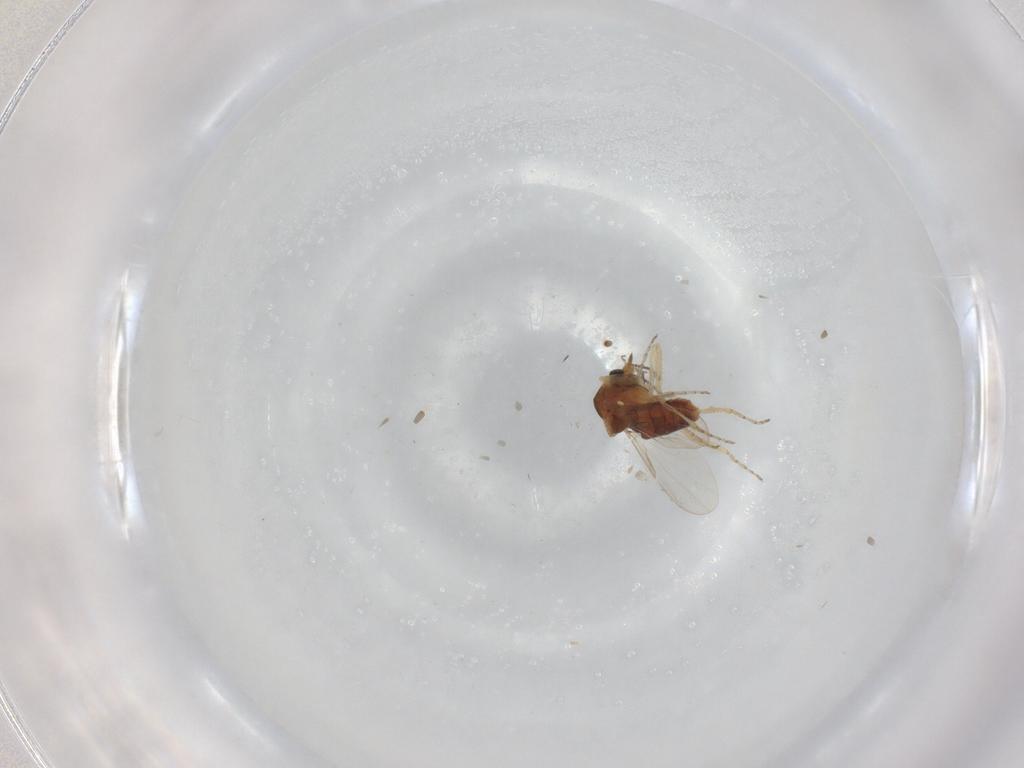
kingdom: Animalia
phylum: Arthropoda
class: Insecta
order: Diptera
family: Ceratopogonidae
